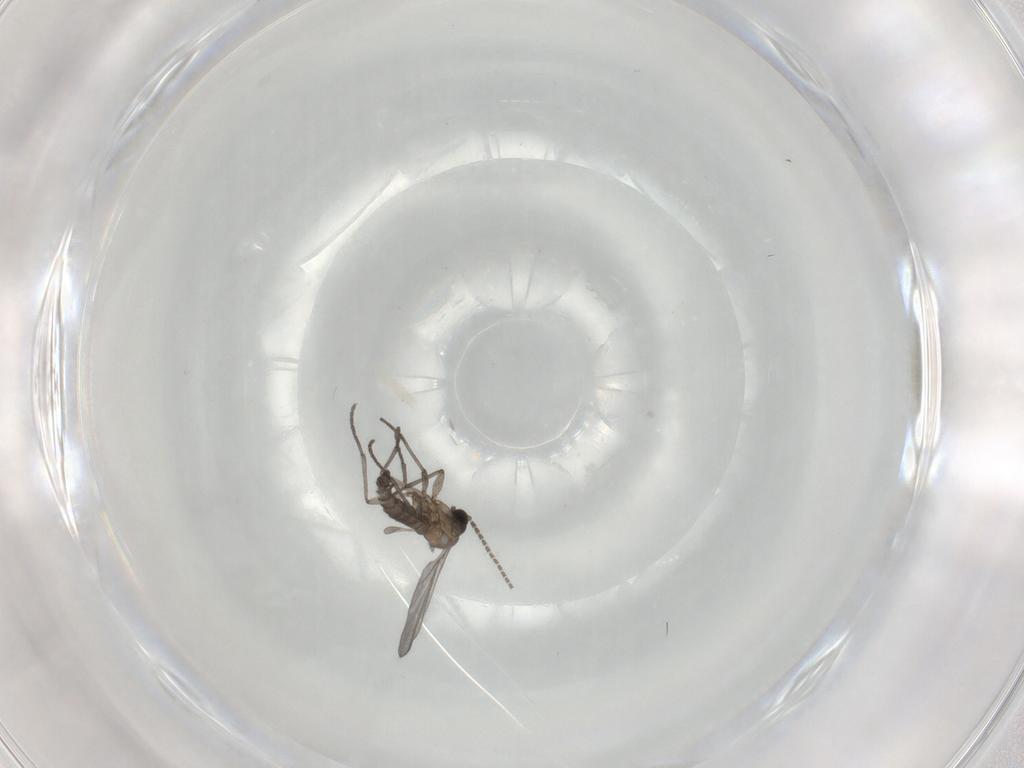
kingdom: Animalia
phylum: Arthropoda
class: Insecta
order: Diptera
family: Sciaridae
